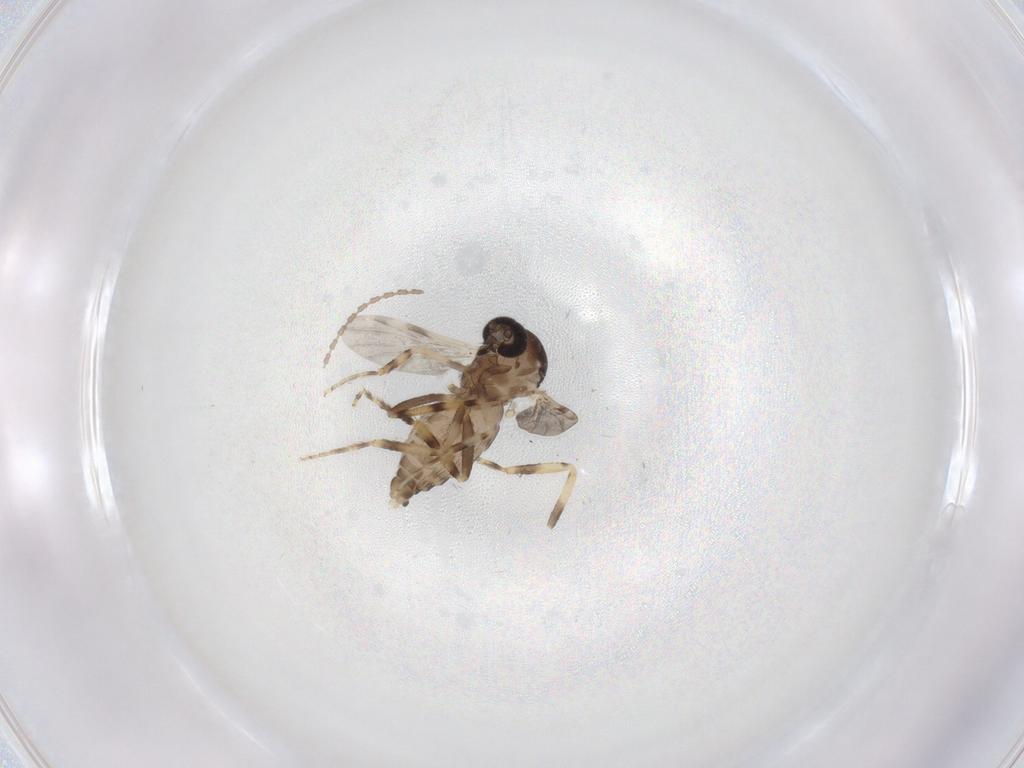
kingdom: Animalia
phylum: Arthropoda
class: Insecta
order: Diptera
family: Ceratopogonidae
